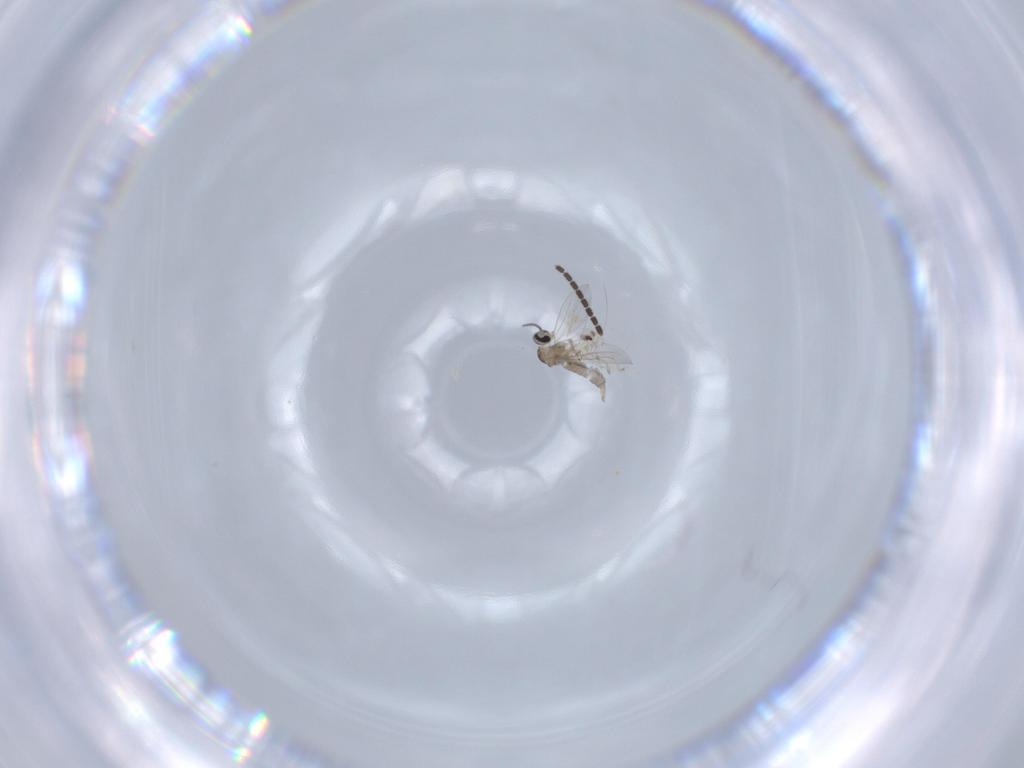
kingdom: Animalia
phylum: Arthropoda
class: Insecta
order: Diptera
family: Sciaridae
